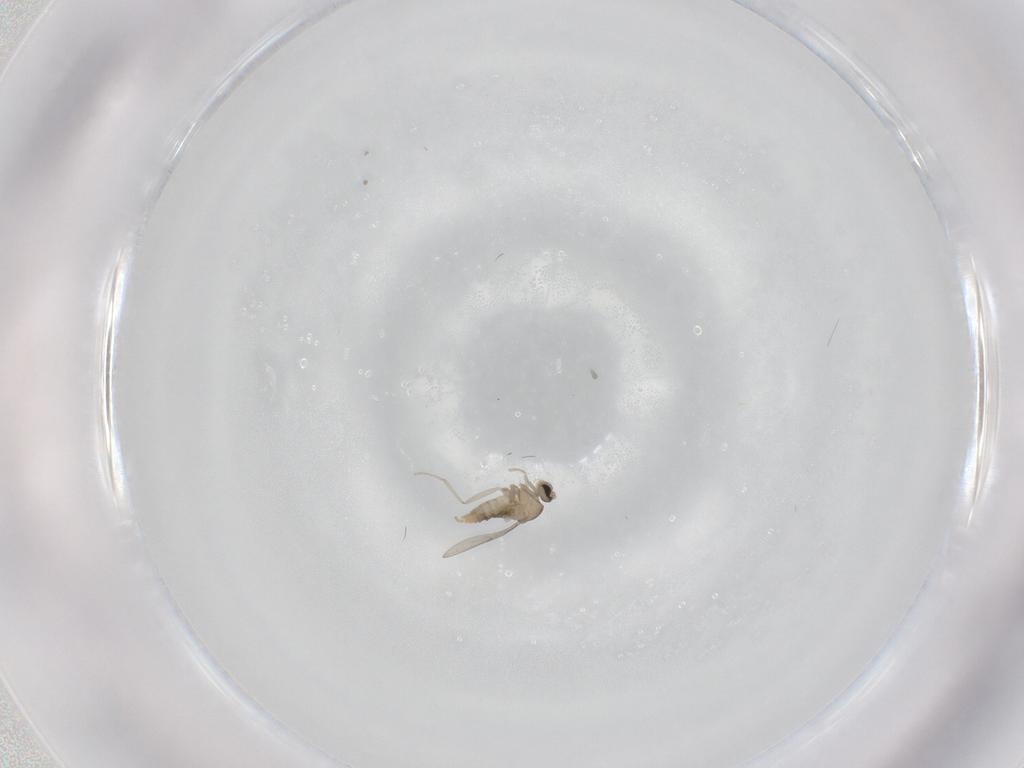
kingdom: Animalia
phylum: Arthropoda
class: Insecta
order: Diptera
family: Cecidomyiidae
